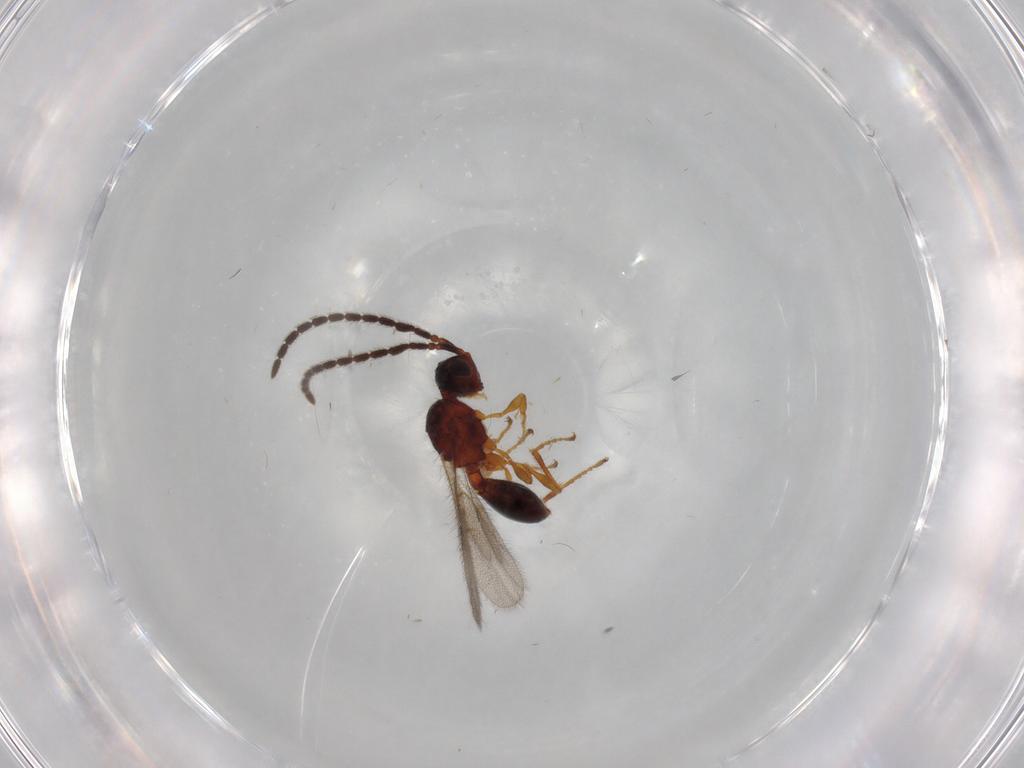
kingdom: Animalia
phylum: Arthropoda
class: Insecta
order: Hymenoptera
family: Diapriidae
